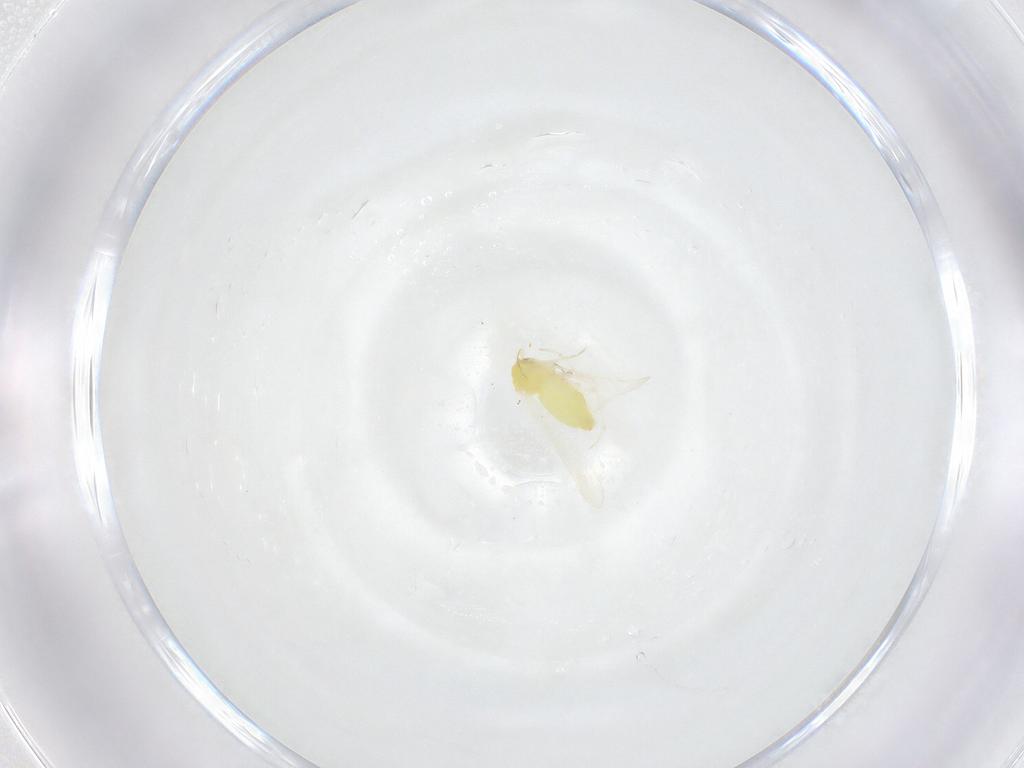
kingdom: Animalia
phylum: Arthropoda
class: Insecta
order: Hemiptera
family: Aleyrodidae
